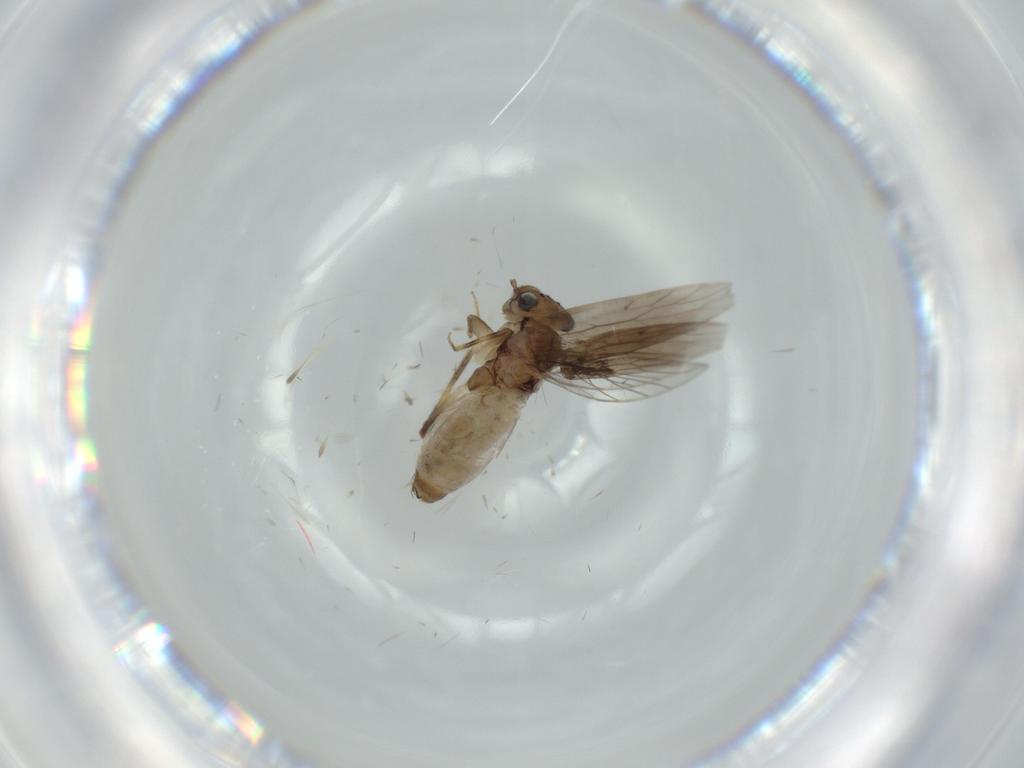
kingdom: Animalia
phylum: Arthropoda
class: Insecta
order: Psocodea
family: Lepidopsocidae
